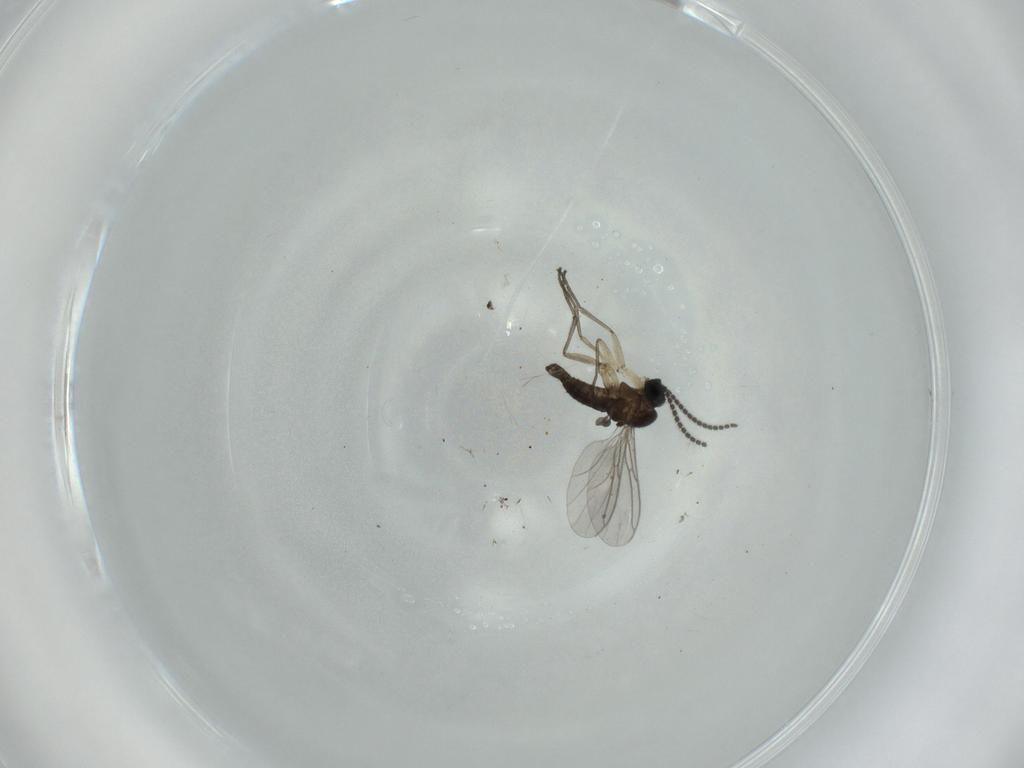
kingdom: Animalia
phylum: Arthropoda
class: Insecta
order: Diptera
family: Sciaridae
